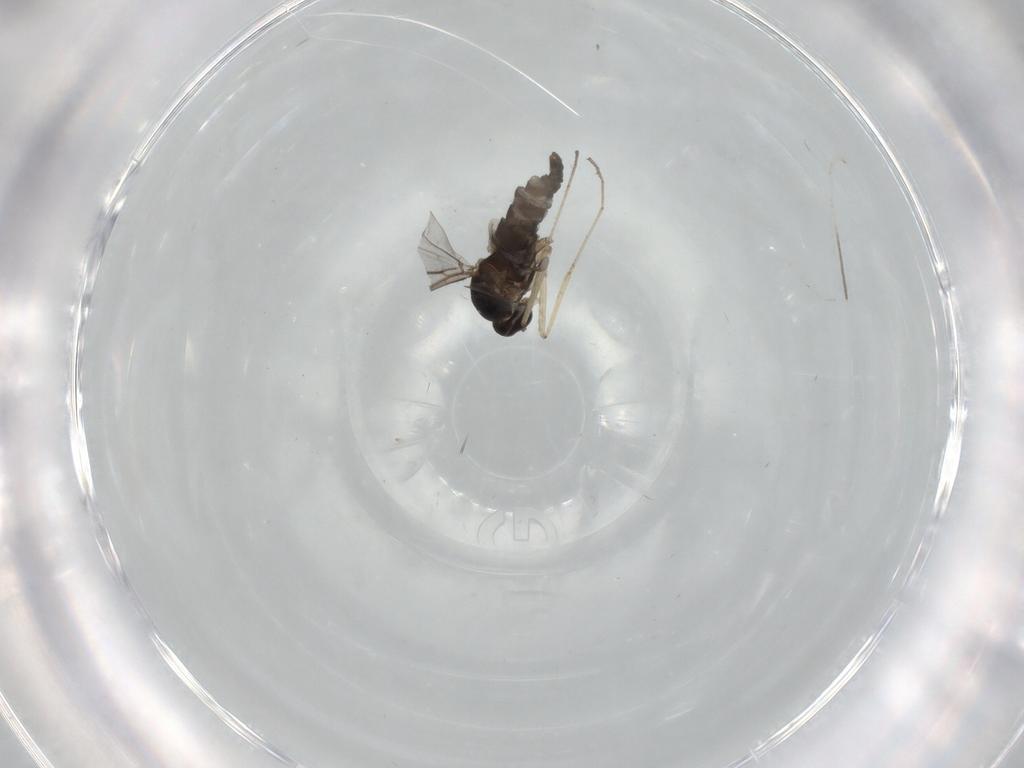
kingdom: Animalia
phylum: Arthropoda
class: Insecta
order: Diptera
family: Cecidomyiidae
